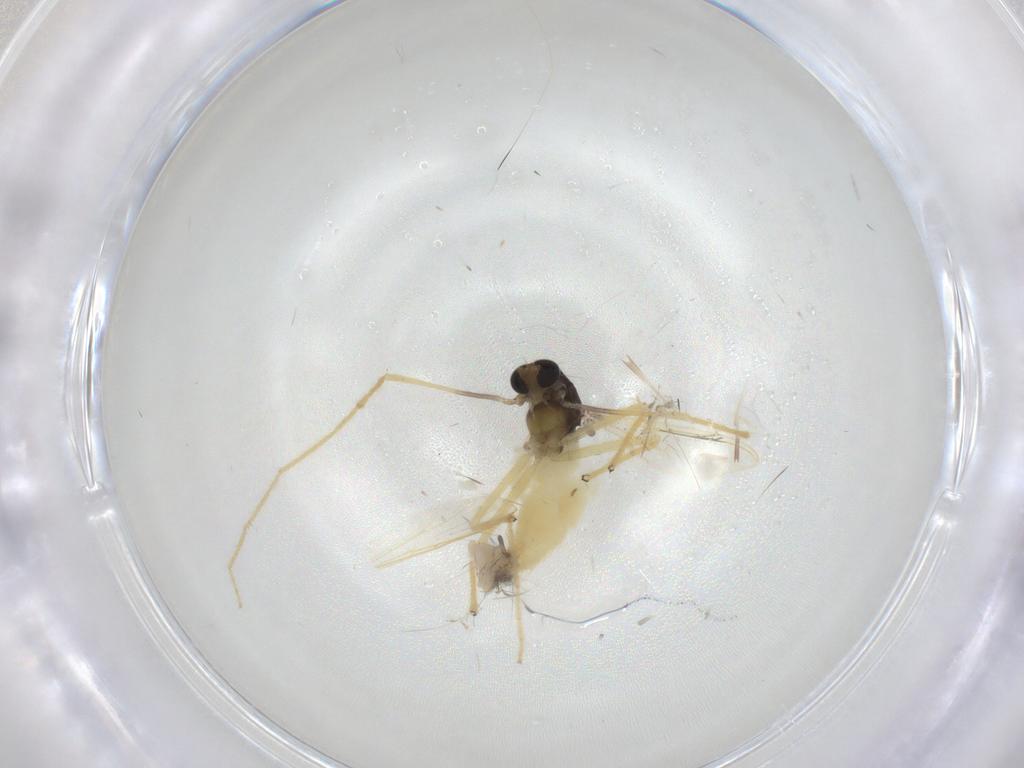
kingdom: Animalia
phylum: Arthropoda
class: Insecta
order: Diptera
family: Chironomidae
